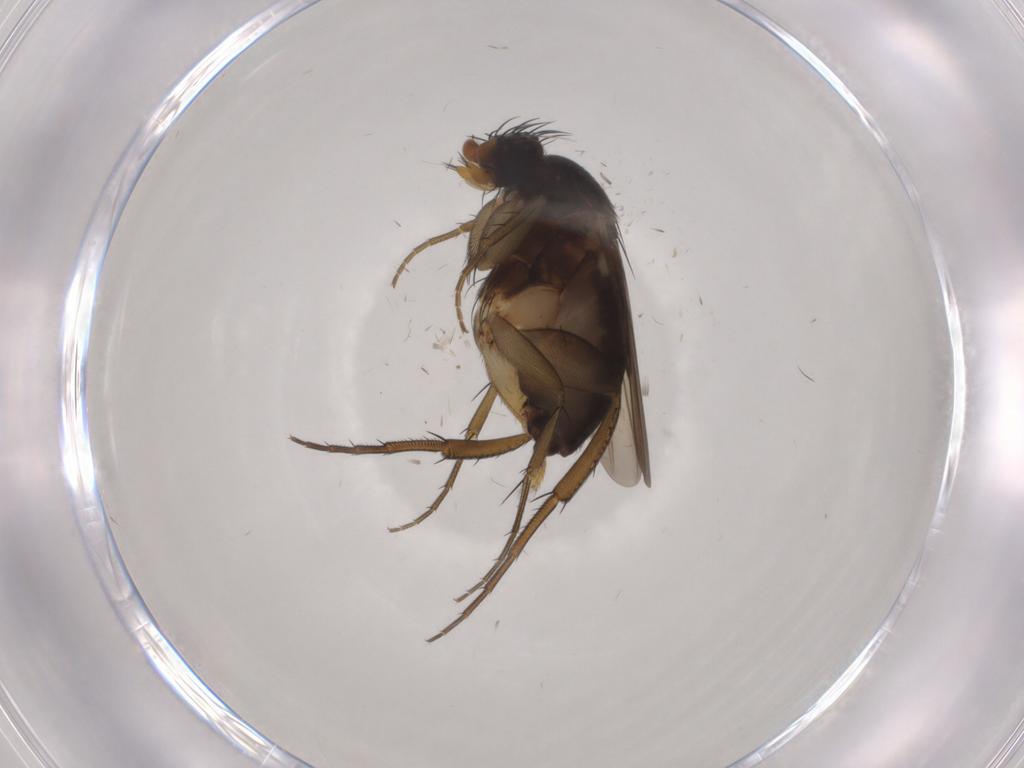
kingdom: Animalia
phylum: Arthropoda
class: Insecta
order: Diptera
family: Phoridae
